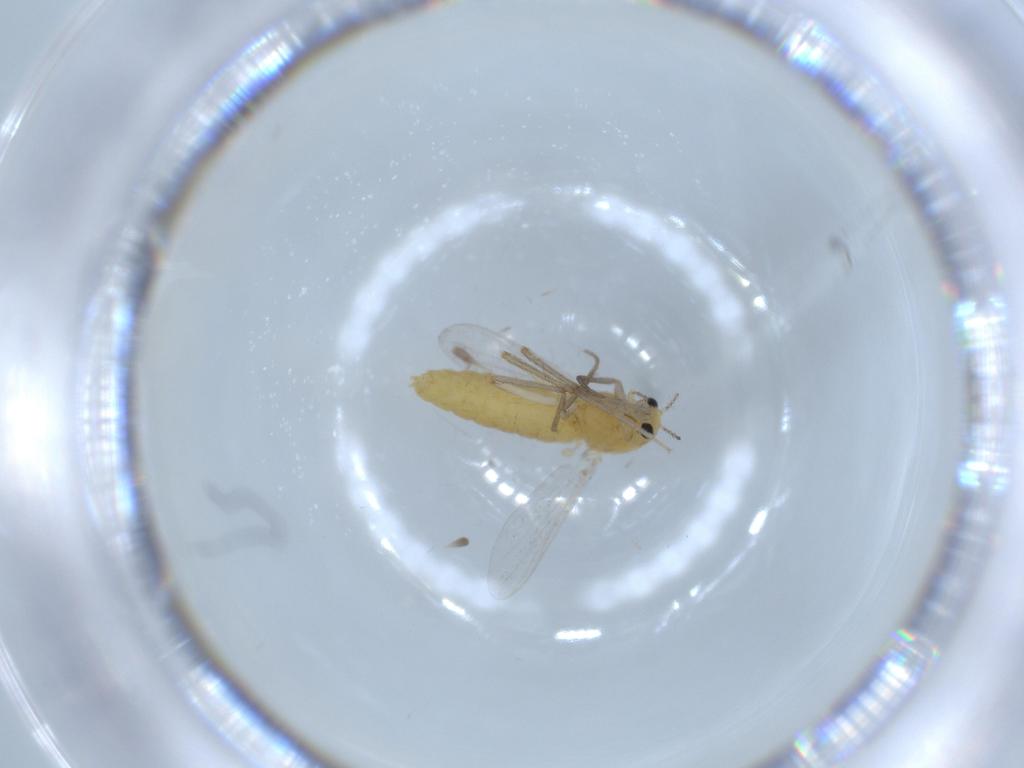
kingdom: Animalia
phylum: Arthropoda
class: Insecta
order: Diptera
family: Chironomidae
